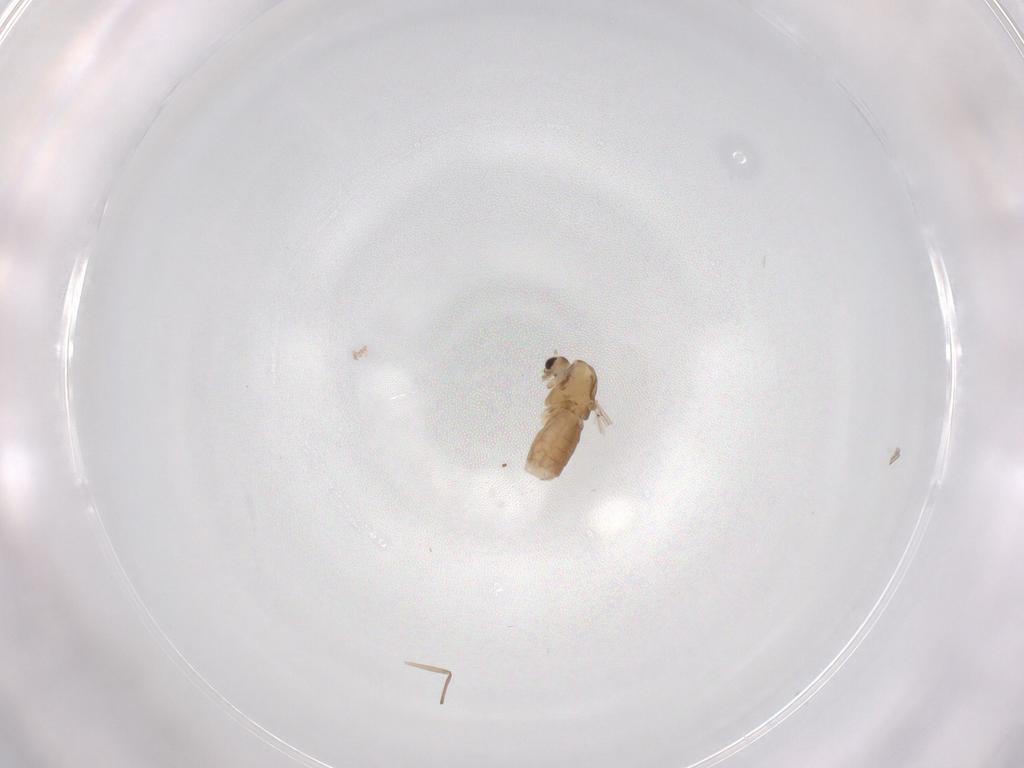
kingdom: Animalia
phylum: Arthropoda
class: Insecta
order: Diptera
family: Chironomidae
